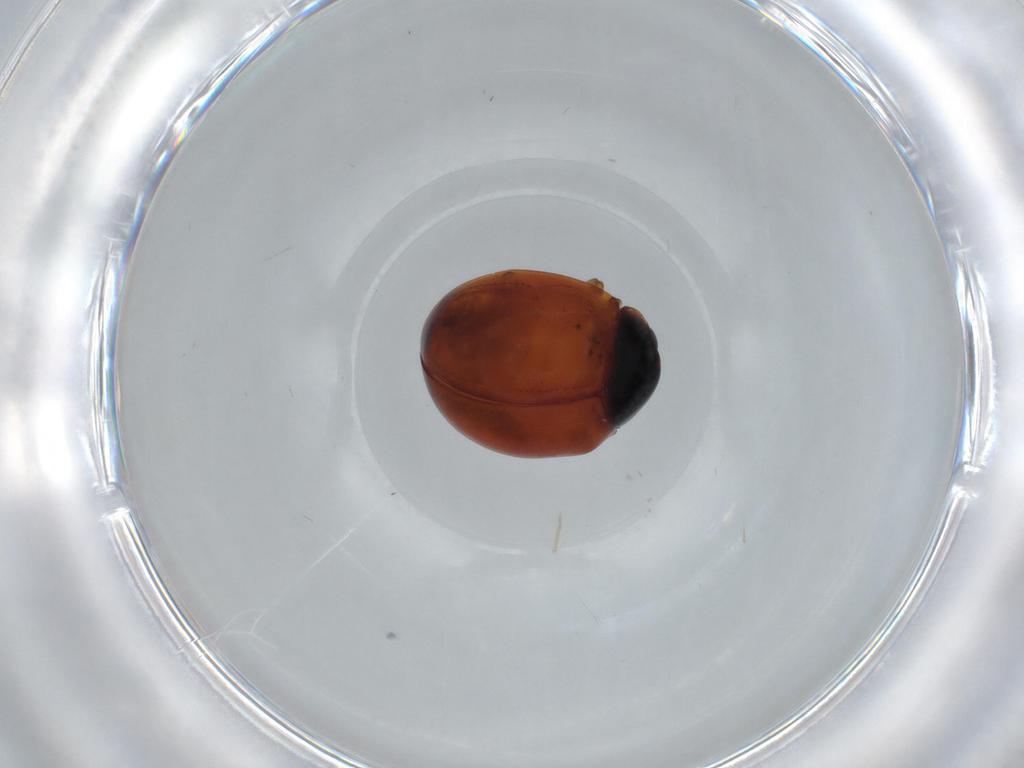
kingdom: Animalia
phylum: Arthropoda
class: Insecta
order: Coleoptera
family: Coccinellidae
